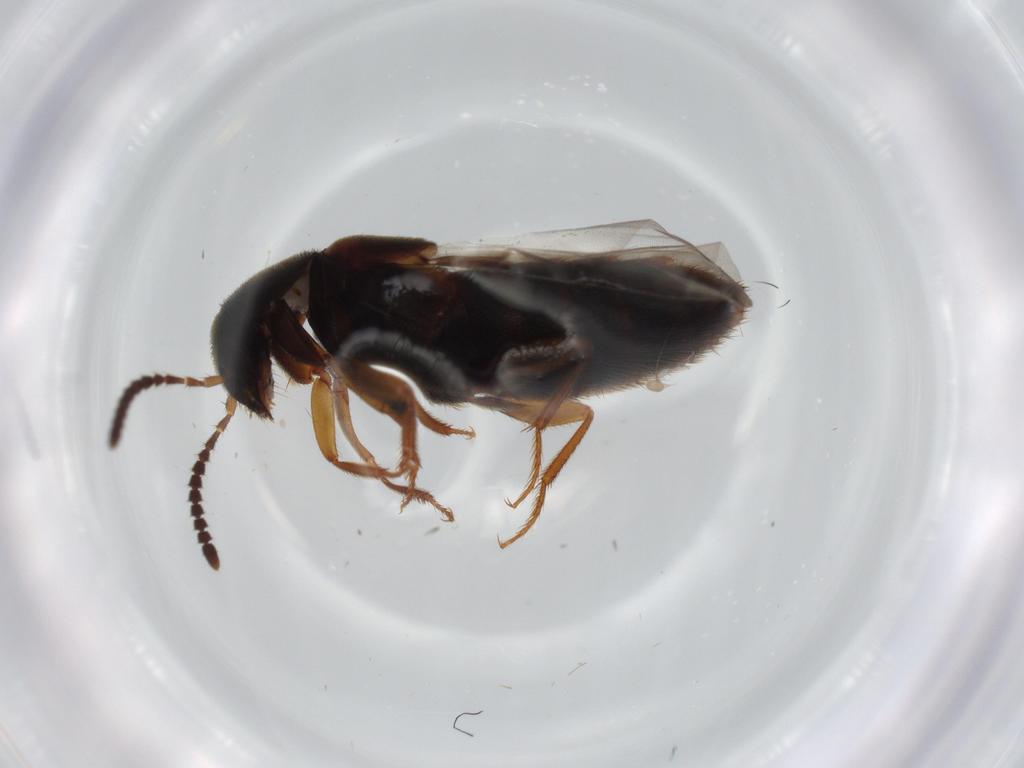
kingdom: Animalia
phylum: Arthropoda
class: Insecta
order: Coleoptera
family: Staphylinidae
